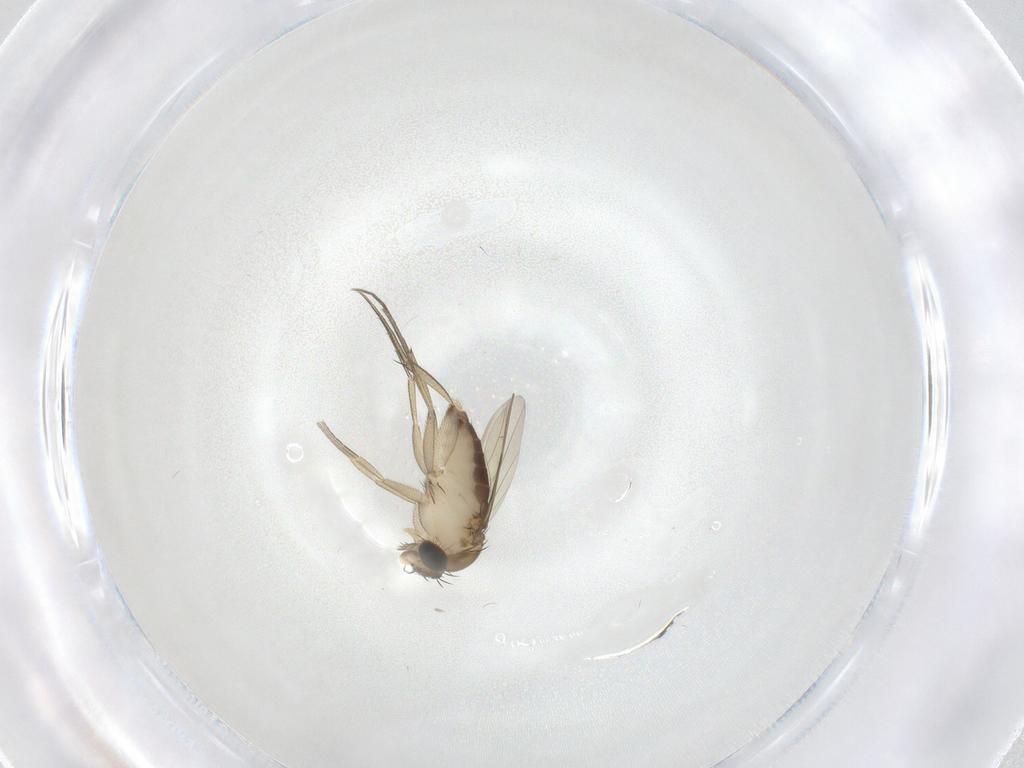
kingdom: Animalia
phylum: Arthropoda
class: Insecta
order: Diptera
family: Phoridae
